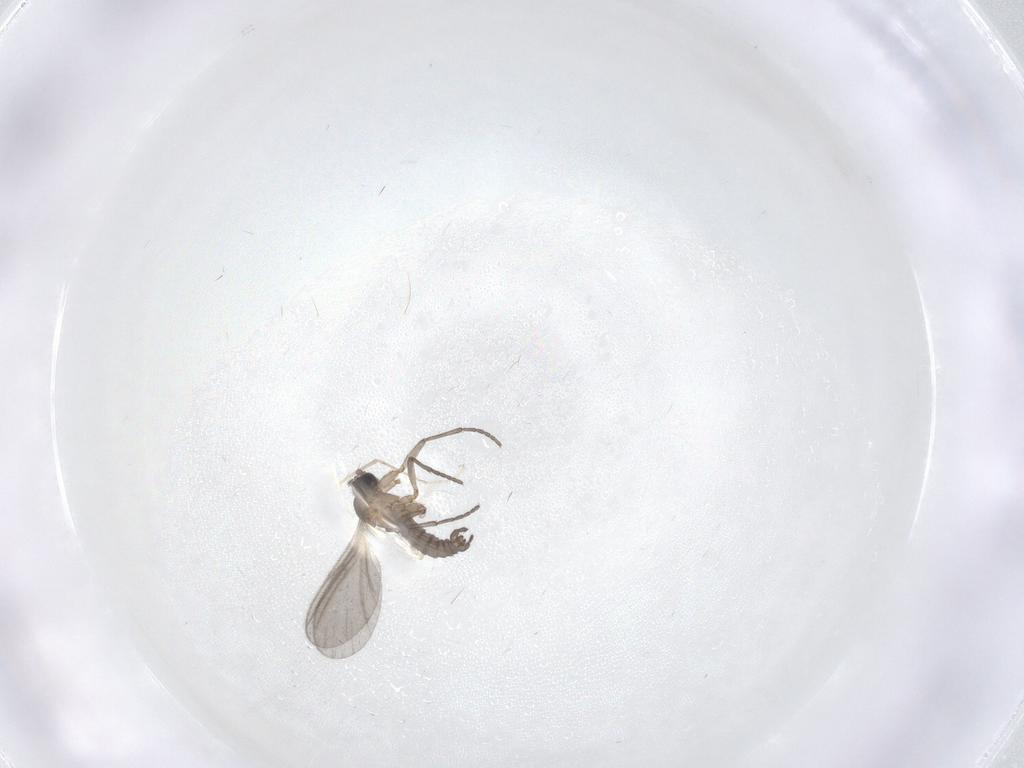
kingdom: Animalia
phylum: Arthropoda
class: Insecta
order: Diptera
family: Sciaridae
